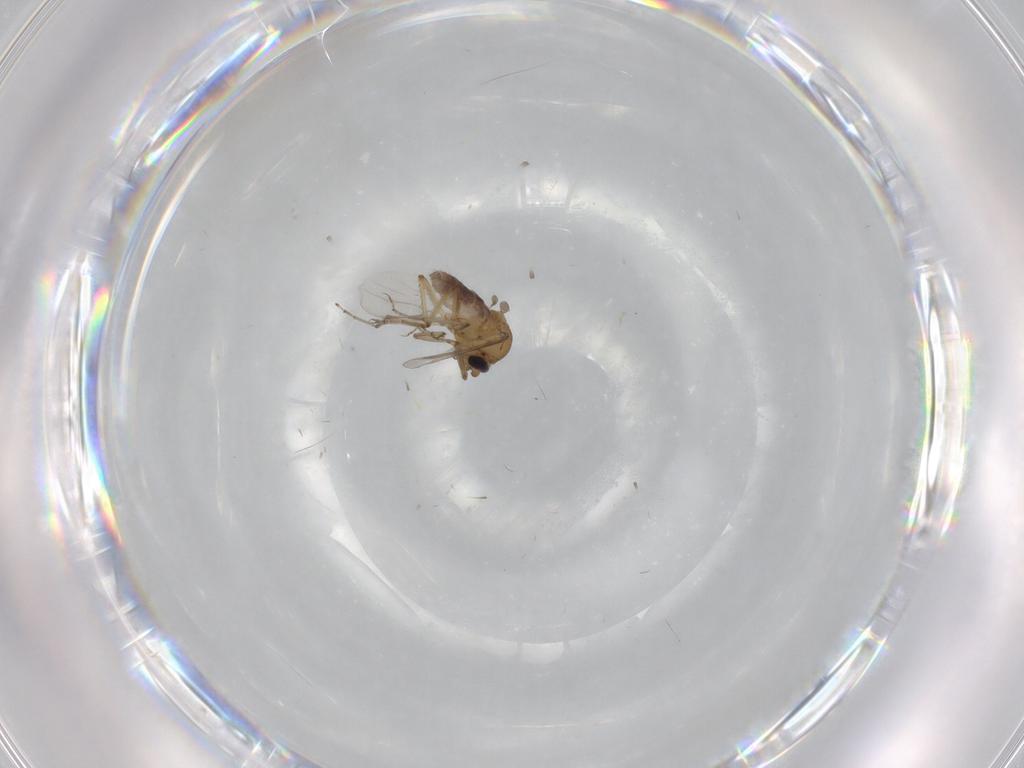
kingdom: Animalia
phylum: Arthropoda
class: Insecta
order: Diptera
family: Ceratopogonidae
